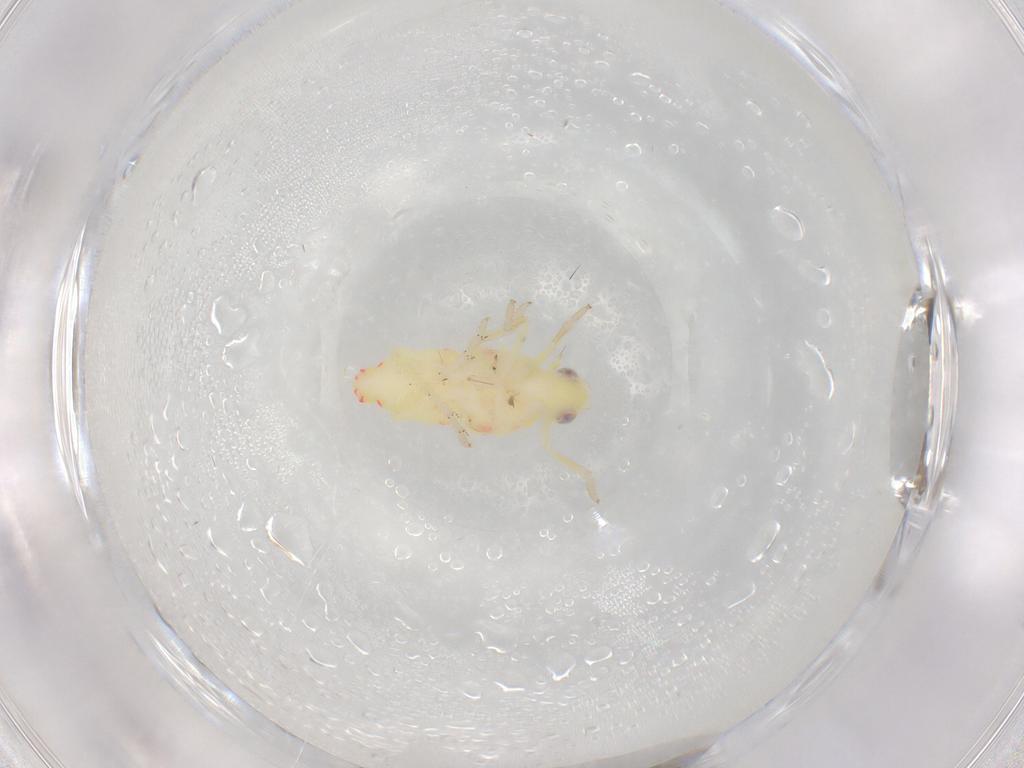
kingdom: Animalia
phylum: Arthropoda
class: Insecta
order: Hemiptera
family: Tropiduchidae
